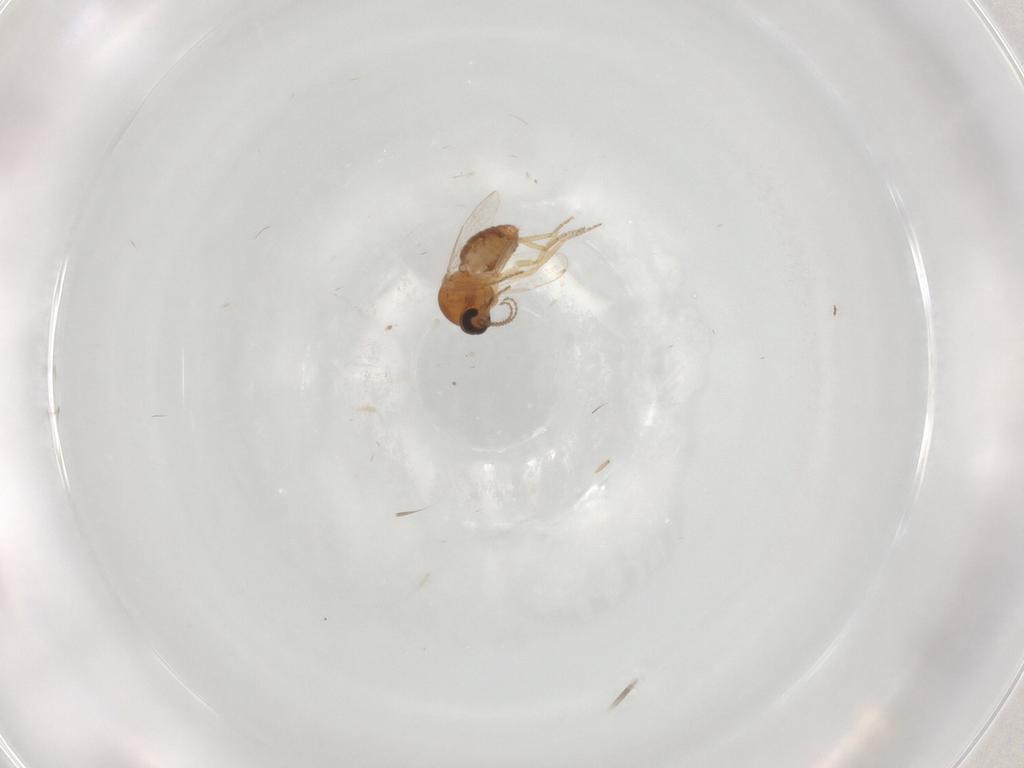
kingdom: Animalia
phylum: Arthropoda
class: Insecta
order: Diptera
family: Ceratopogonidae
